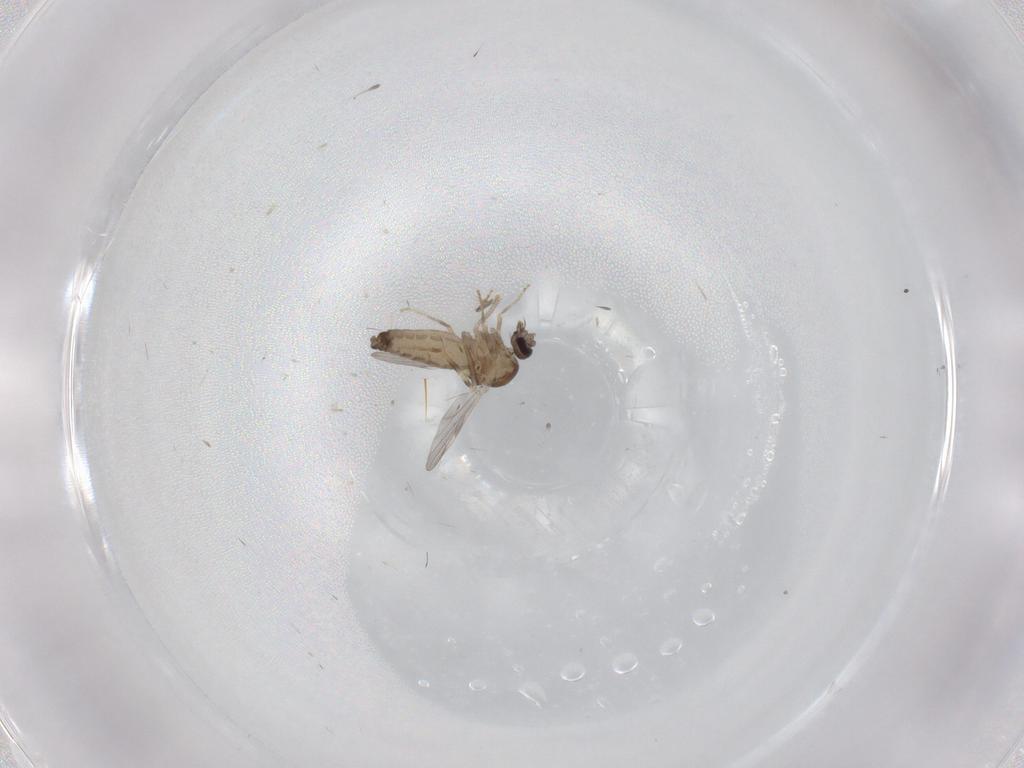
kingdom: Animalia
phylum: Arthropoda
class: Insecta
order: Diptera
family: Ceratopogonidae
